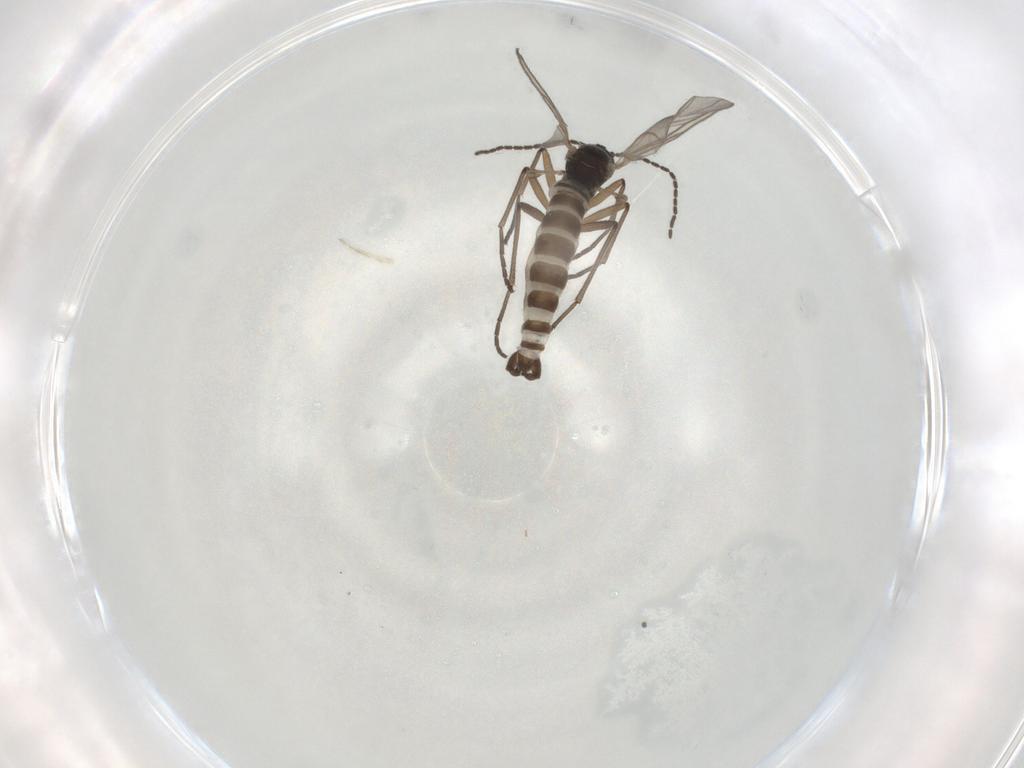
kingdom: Animalia
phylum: Arthropoda
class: Insecta
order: Diptera
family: Sciaridae
